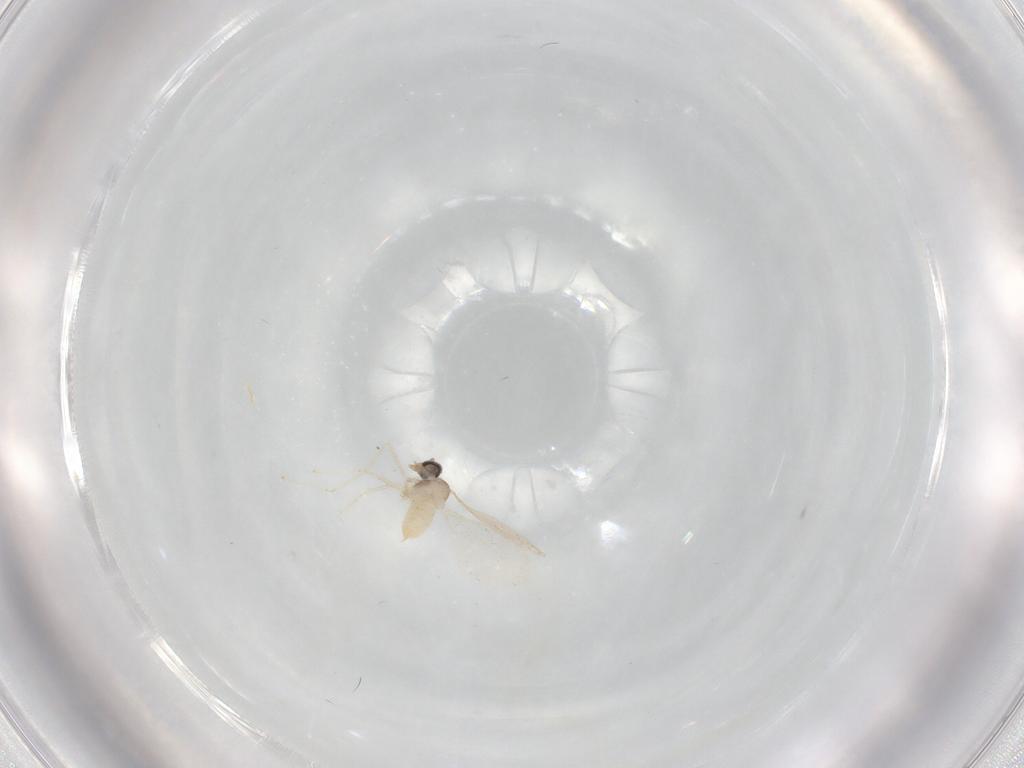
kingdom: Animalia
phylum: Arthropoda
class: Insecta
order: Diptera
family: Cecidomyiidae
